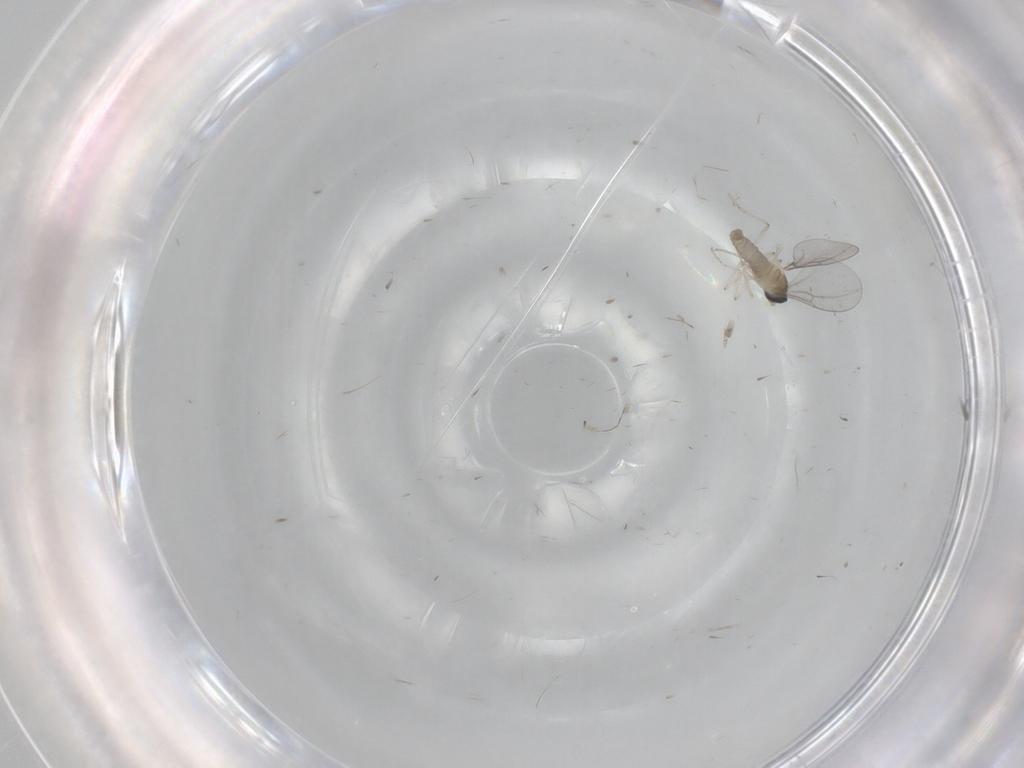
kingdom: Animalia
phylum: Arthropoda
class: Insecta
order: Diptera
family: Cecidomyiidae
